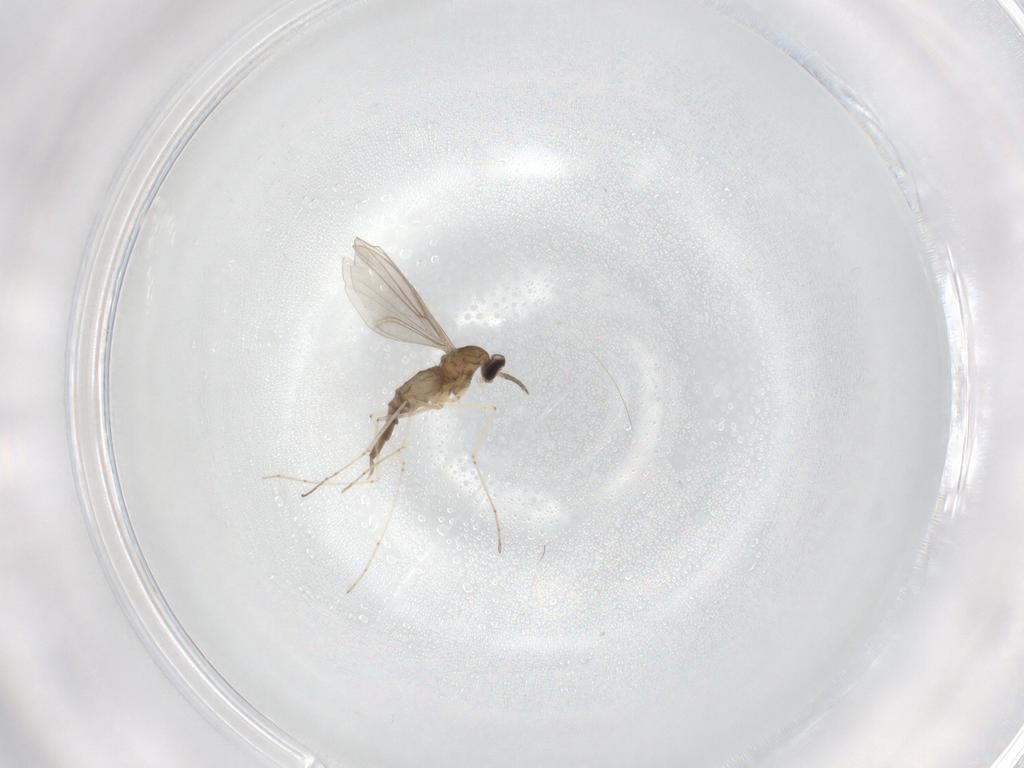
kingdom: Animalia
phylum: Arthropoda
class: Insecta
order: Diptera
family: Cecidomyiidae
